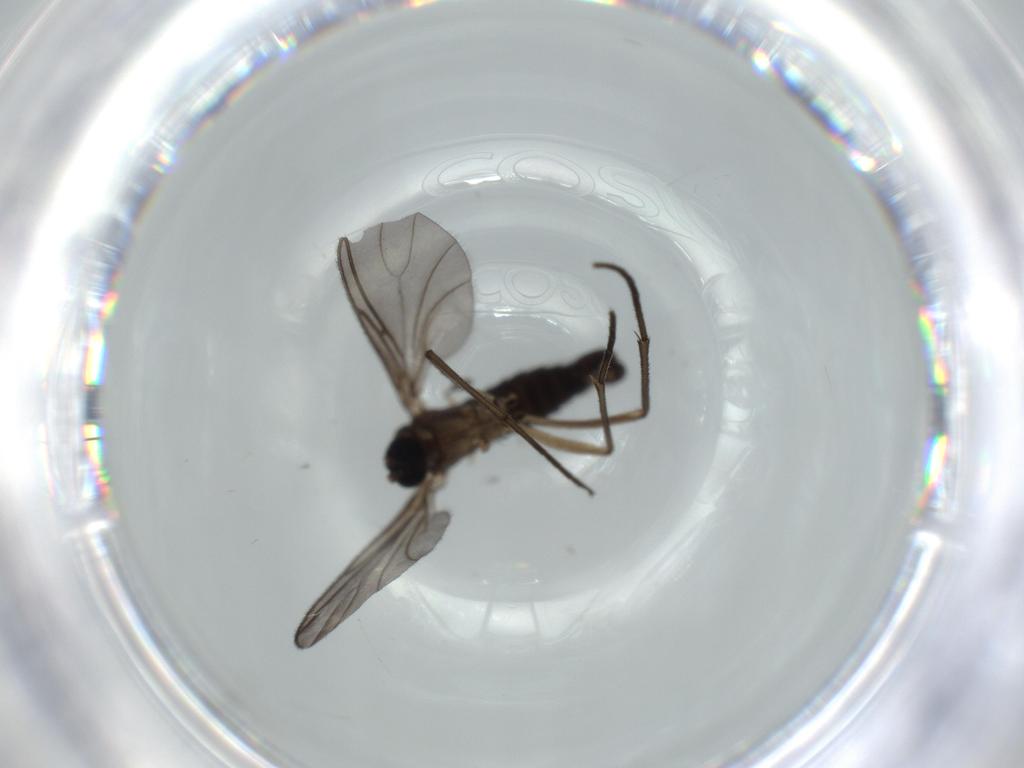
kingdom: Animalia
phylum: Arthropoda
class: Insecta
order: Diptera
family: Sciaridae
